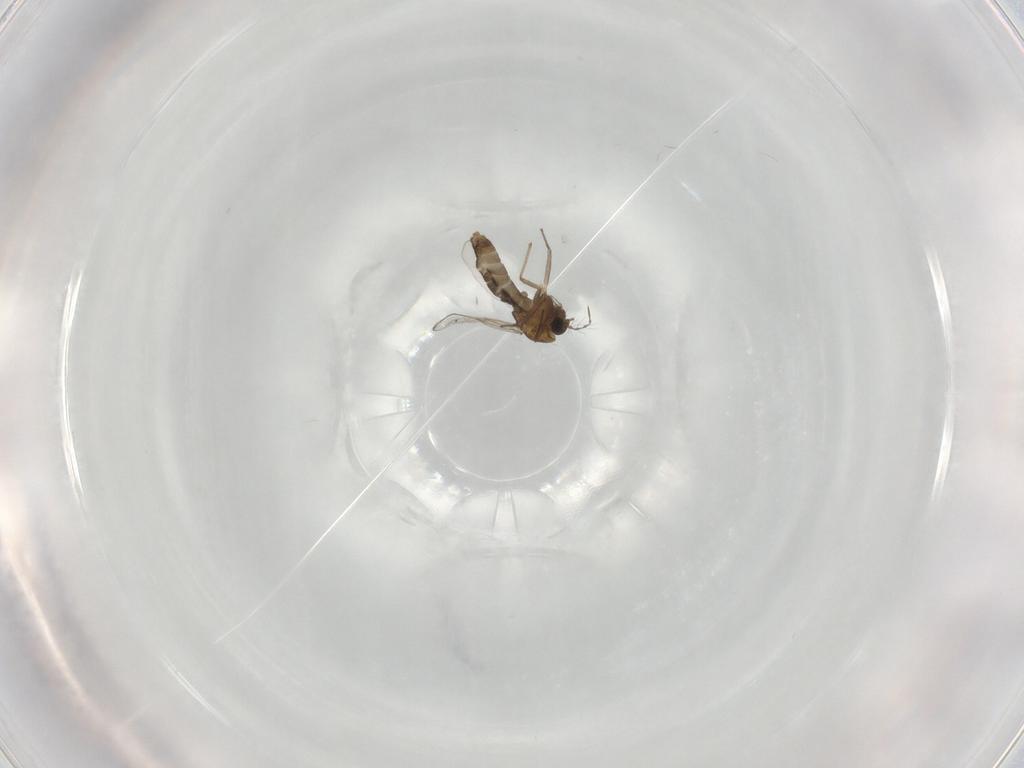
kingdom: Animalia
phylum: Arthropoda
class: Insecta
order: Diptera
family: Chironomidae
